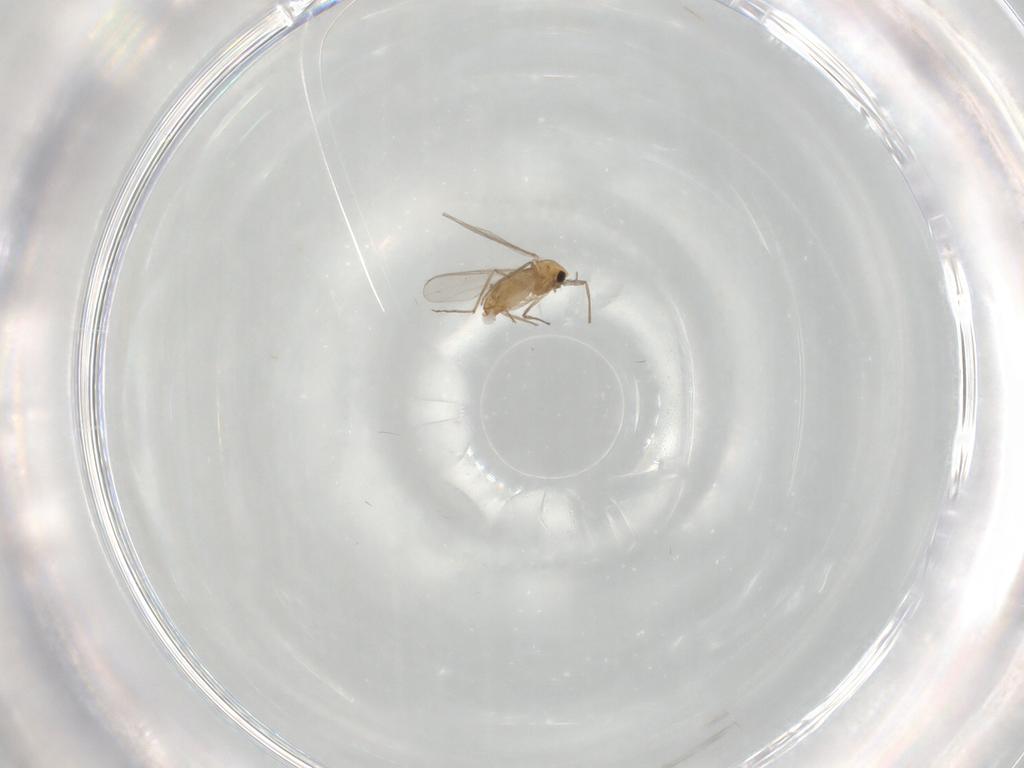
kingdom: Animalia
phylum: Arthropoda
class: Insecta
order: Diptera
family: Chironomidae
